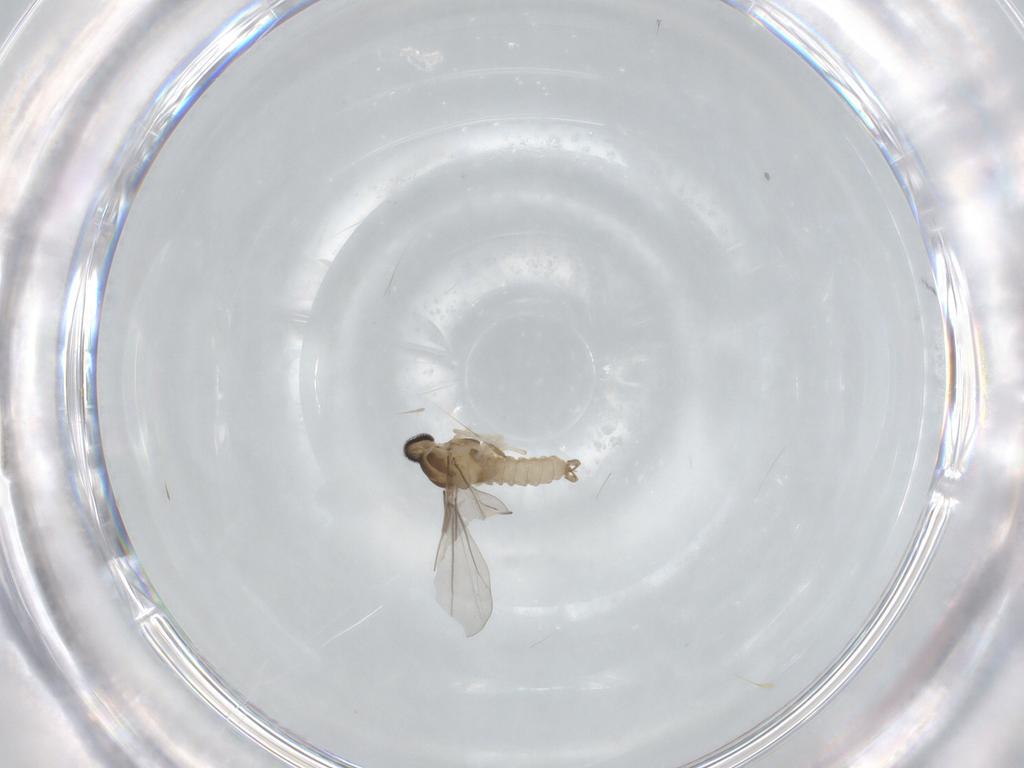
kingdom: Animalia
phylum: Arthropoda
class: Insecta
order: Diptera
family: Cecidomyiidae
